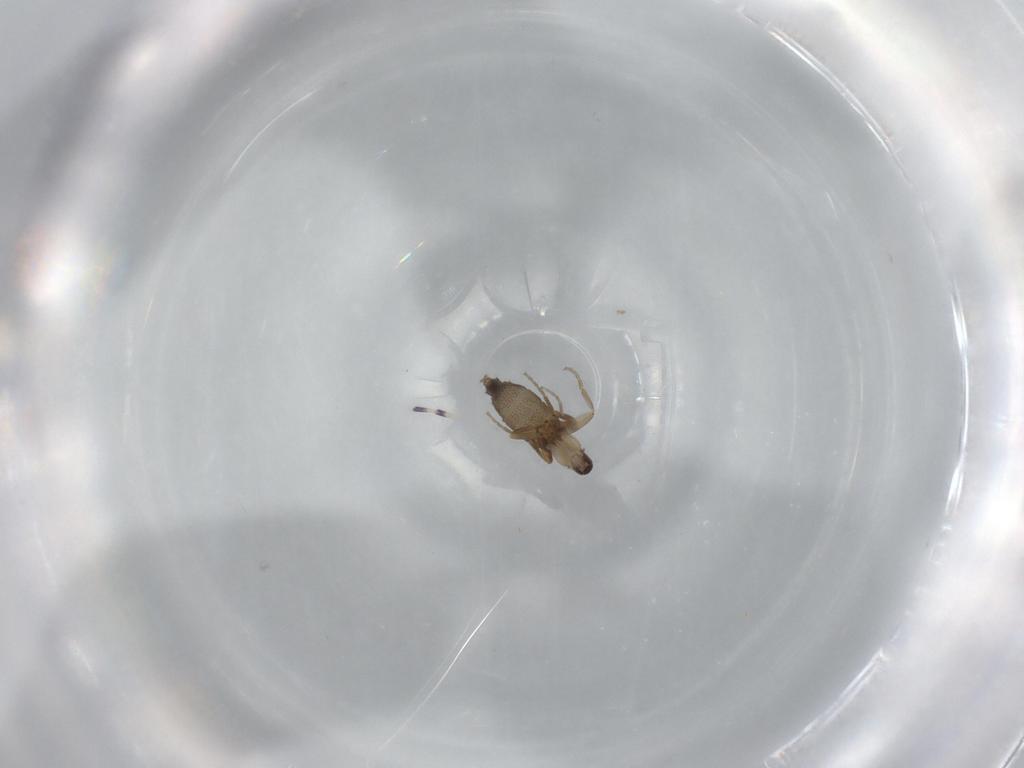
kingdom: Animalia
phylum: Arthropoda
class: Insecta
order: Diptera
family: Phoridae
